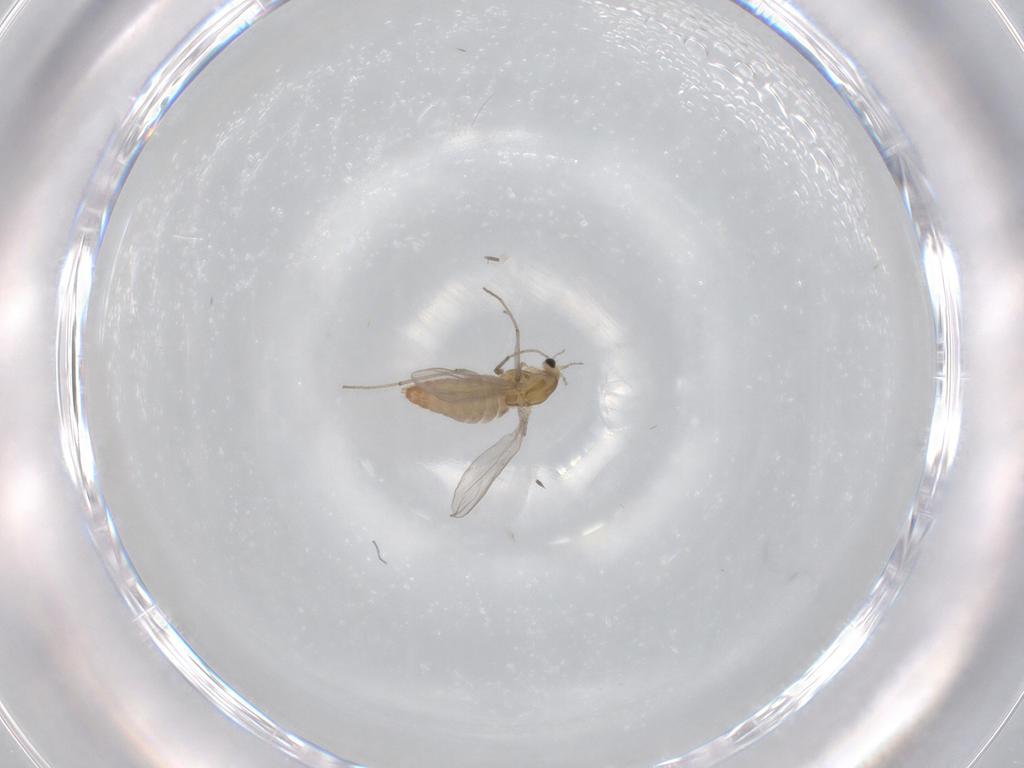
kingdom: Animalia
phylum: Arthropoda
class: Insecta
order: Diptera
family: Chironomidae
